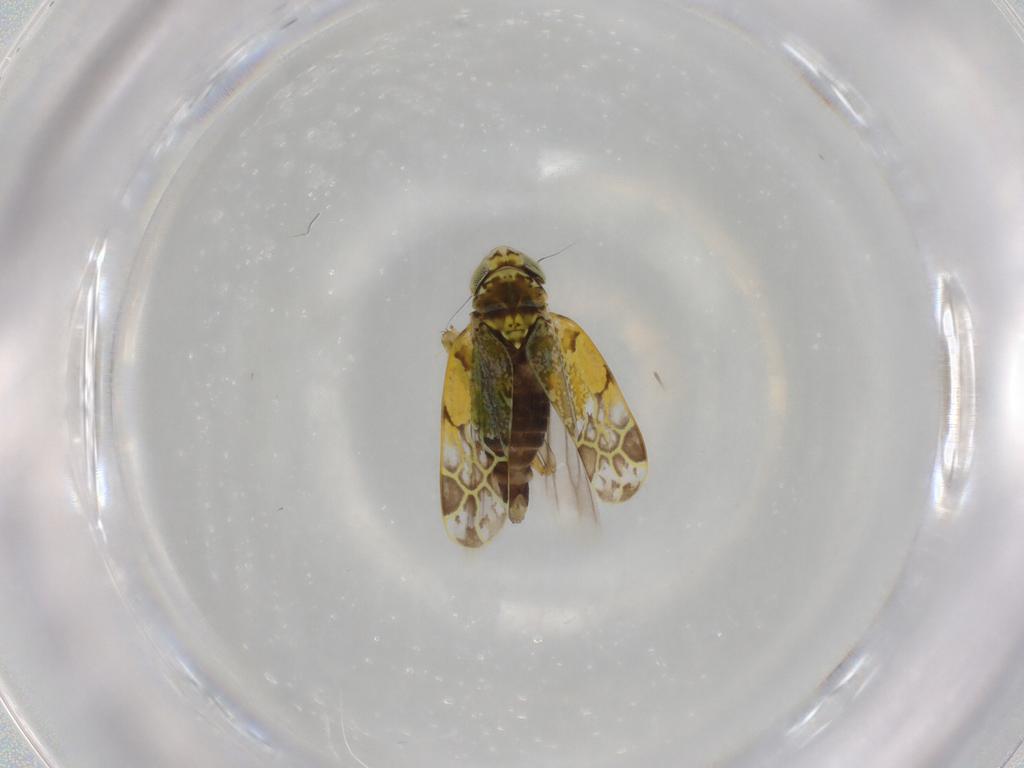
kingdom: Animalia
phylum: Arthropoda
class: Insecta
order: Hemiptera
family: Cicadellidae
